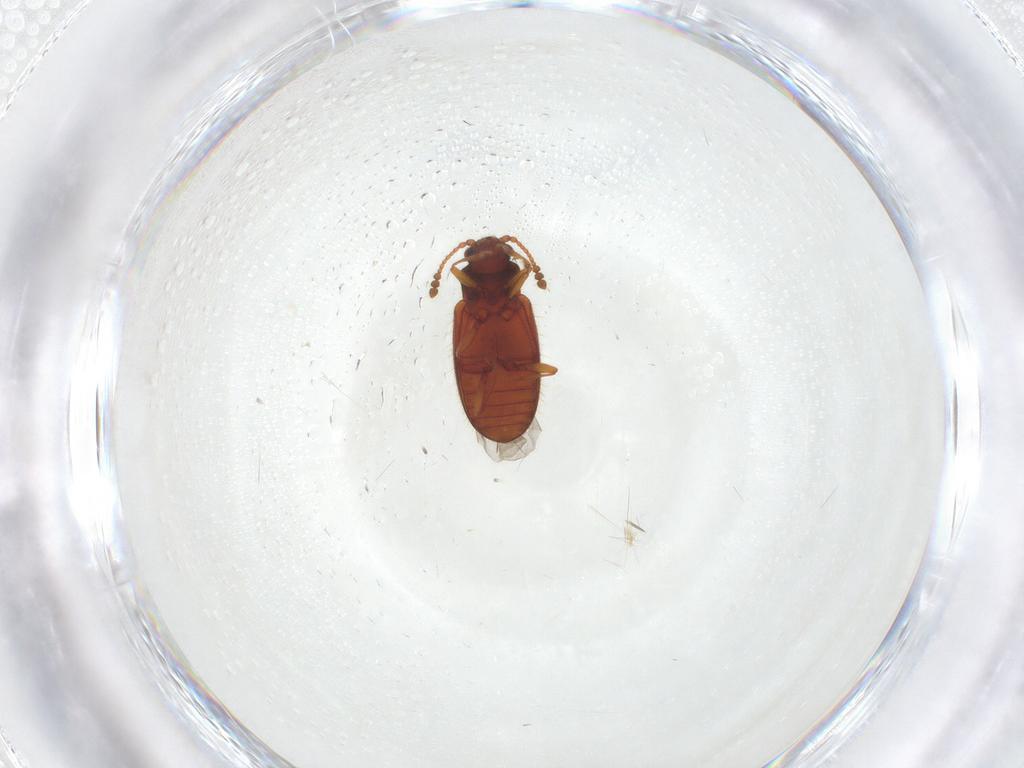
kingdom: Animalia
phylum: Arthropoda
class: Insecta
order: Coleoptera
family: Cryptophagidae
